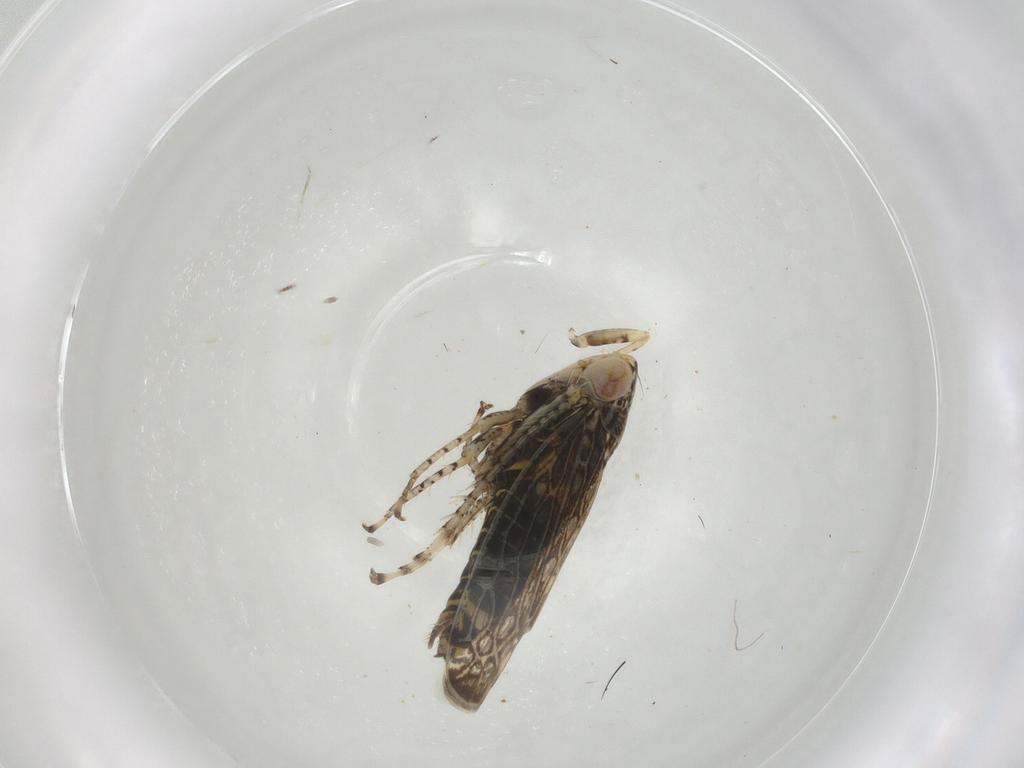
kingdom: Animalia
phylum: Arthropoda
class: Insecta
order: Hemiptera
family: Cicadellidae
